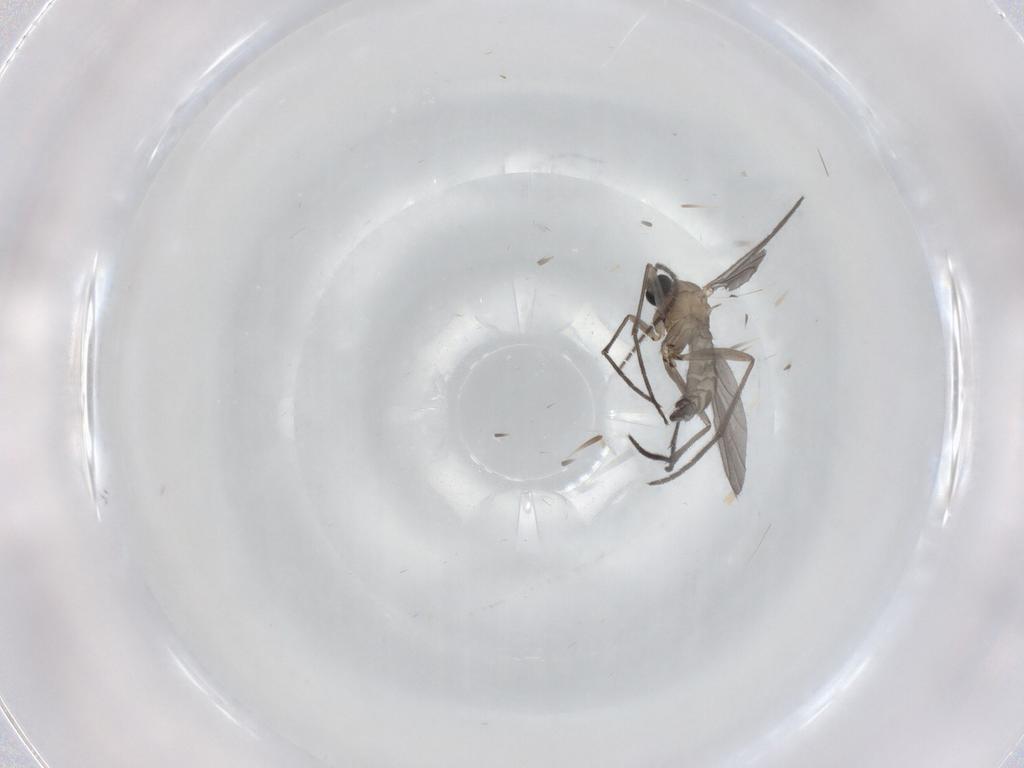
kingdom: Animalia
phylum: Arthropoda
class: Insecta
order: Diptera
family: Sciaridae
